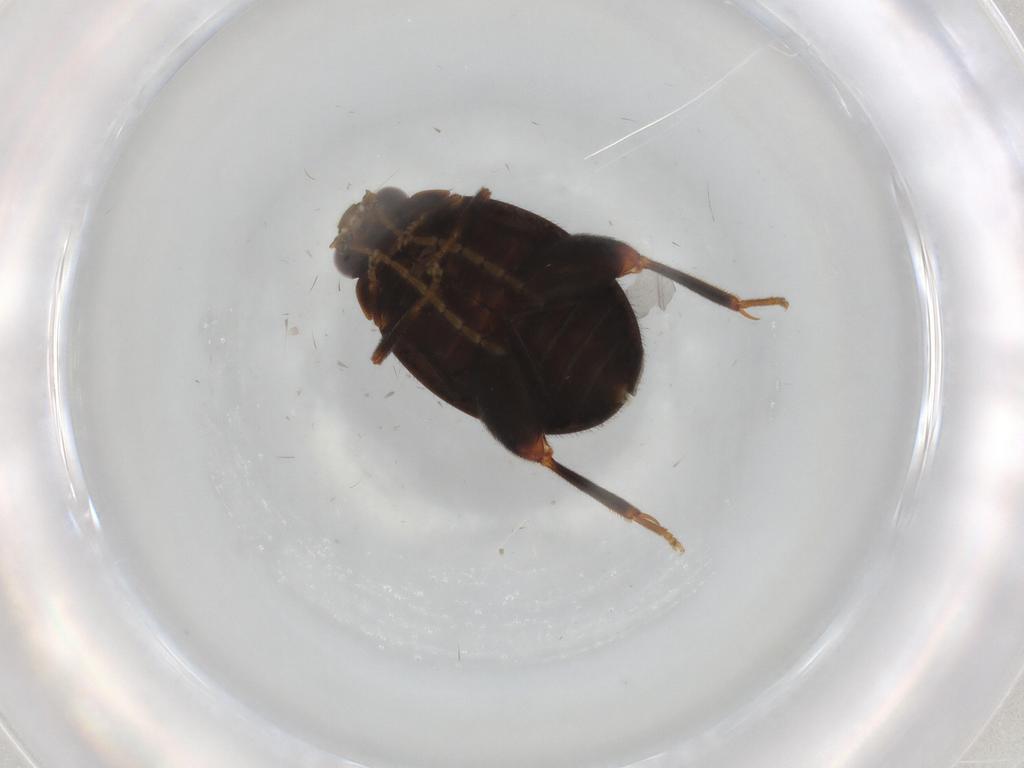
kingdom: Animalia
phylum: Arthropoda
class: Insecta
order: Coleoptera
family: Scirtidae
